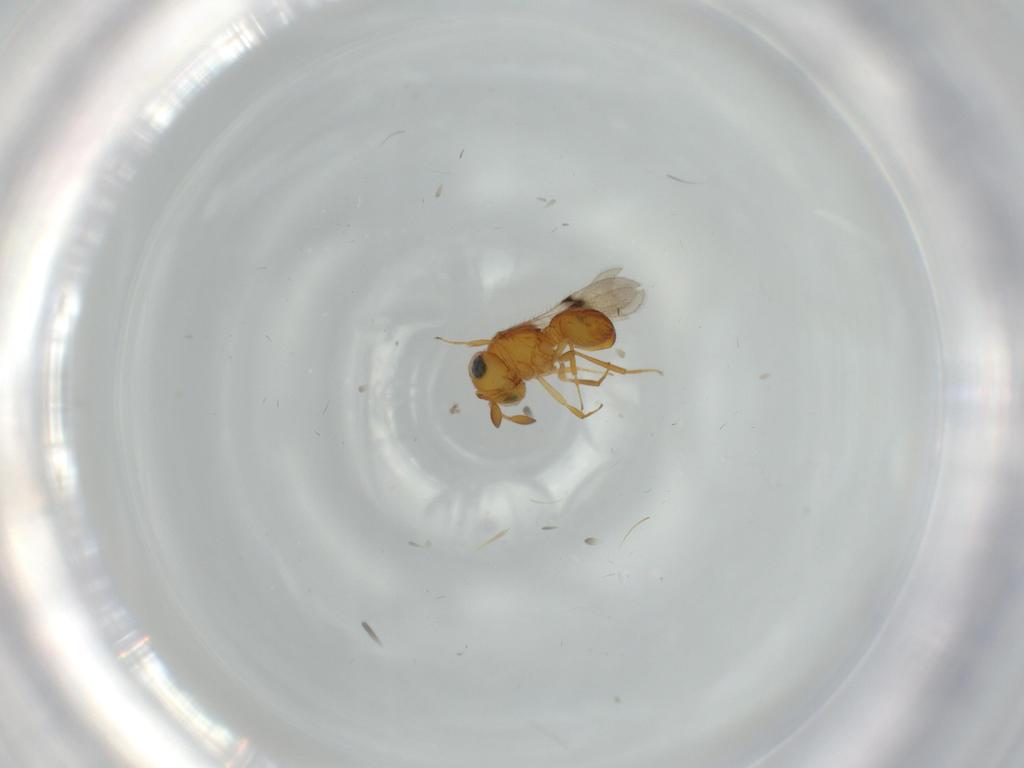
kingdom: Animalia
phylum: Arthropoda
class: Insecta
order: Hymenoptera
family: Scelionidae
